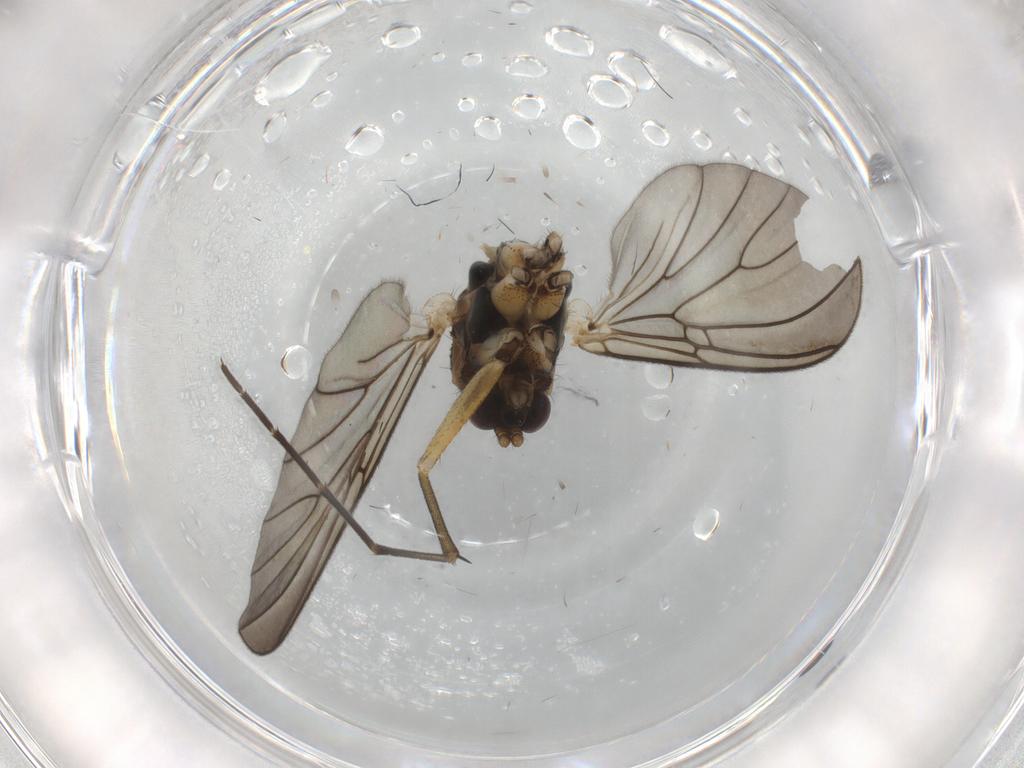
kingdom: Animalia
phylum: Arthropoda
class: Insecta
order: Diptera
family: Mycetophilidae
